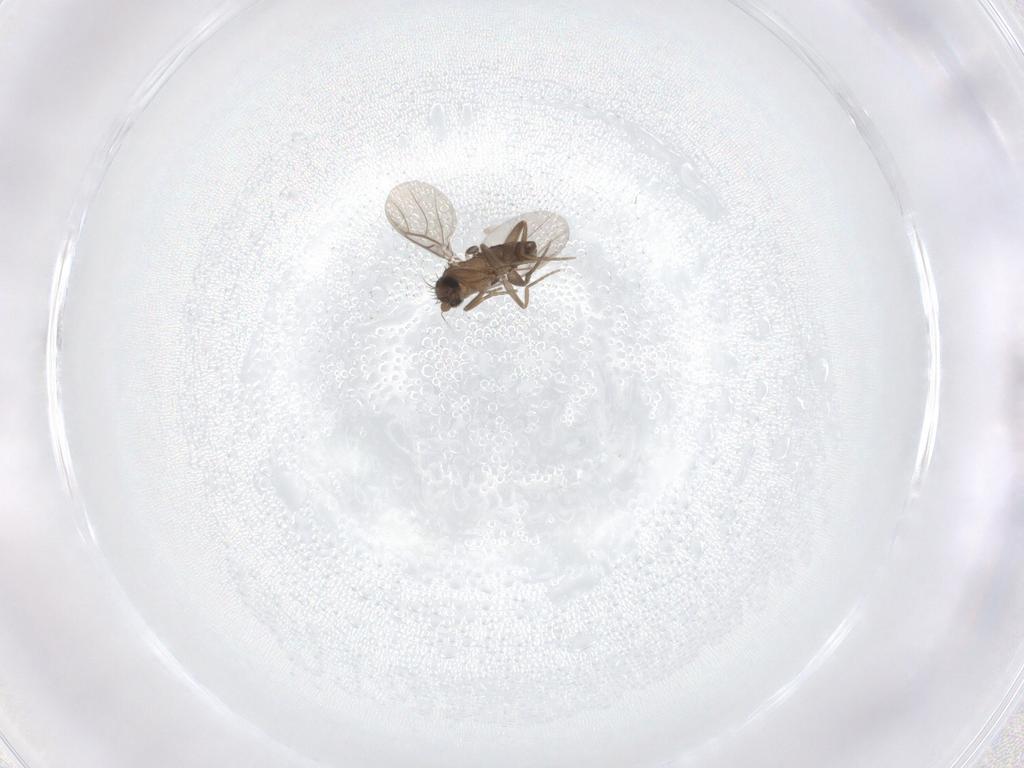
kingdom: Animalia
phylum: Arthropoda
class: Insecta
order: Diptera
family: Phoridae
